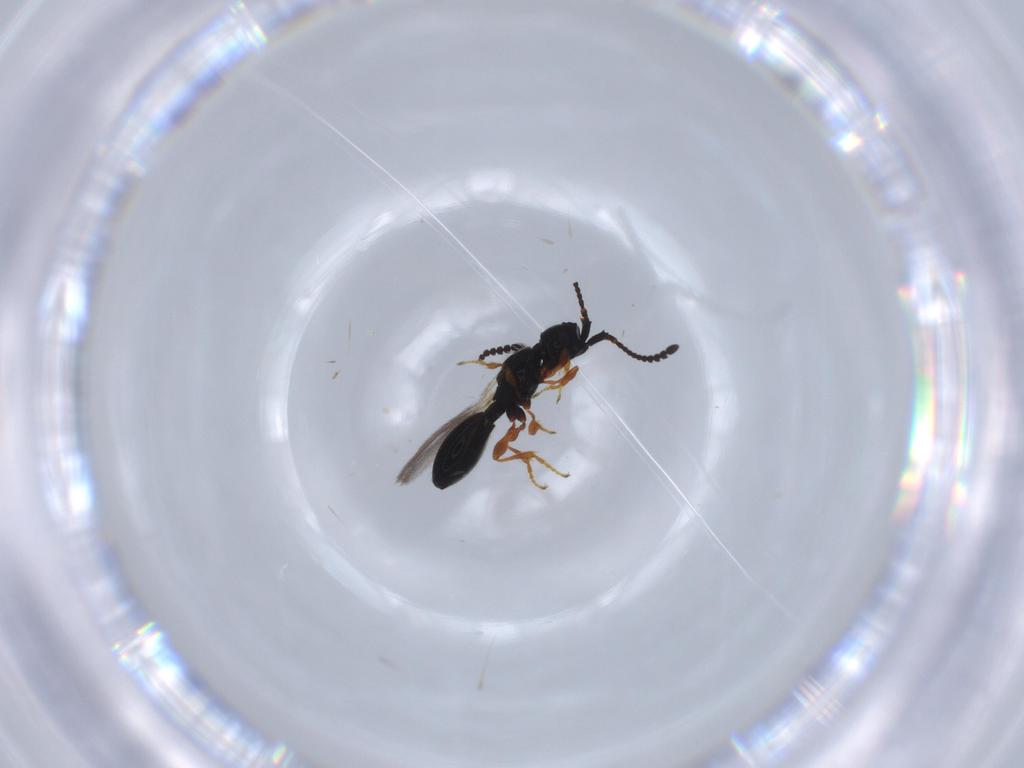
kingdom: Animalia
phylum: Arthropoda
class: Insecta
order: Hymenoptera
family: Diapriidae
